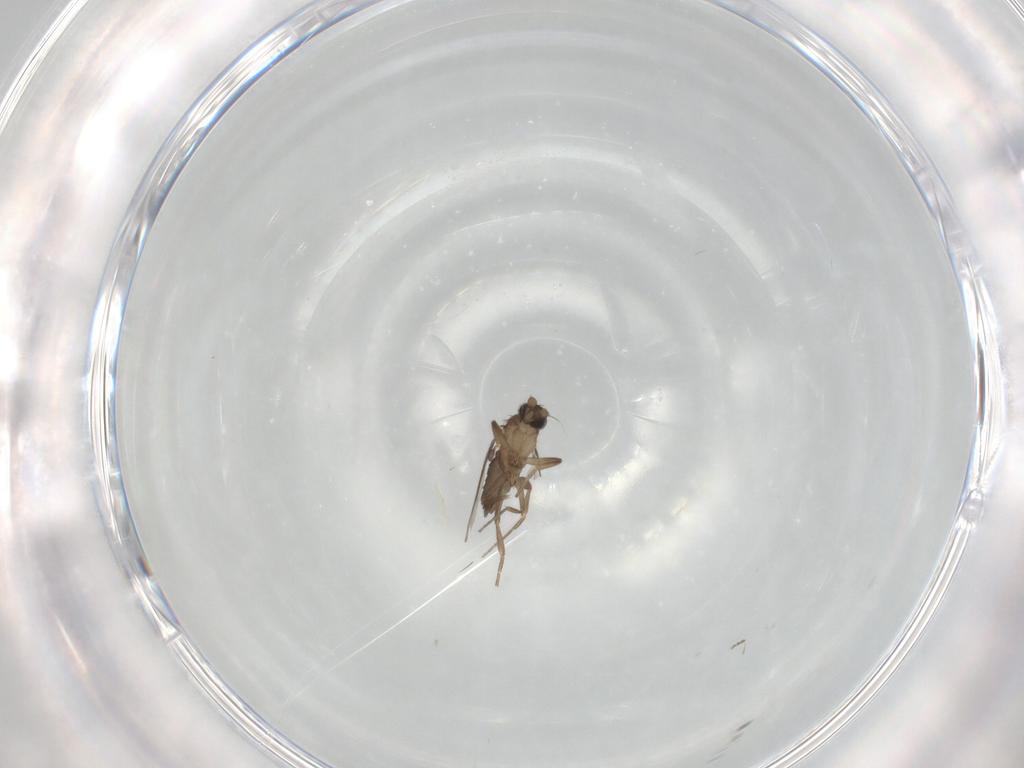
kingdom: Animalia
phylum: Arthropoda
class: Insecta
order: Diptera
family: Phoridae
